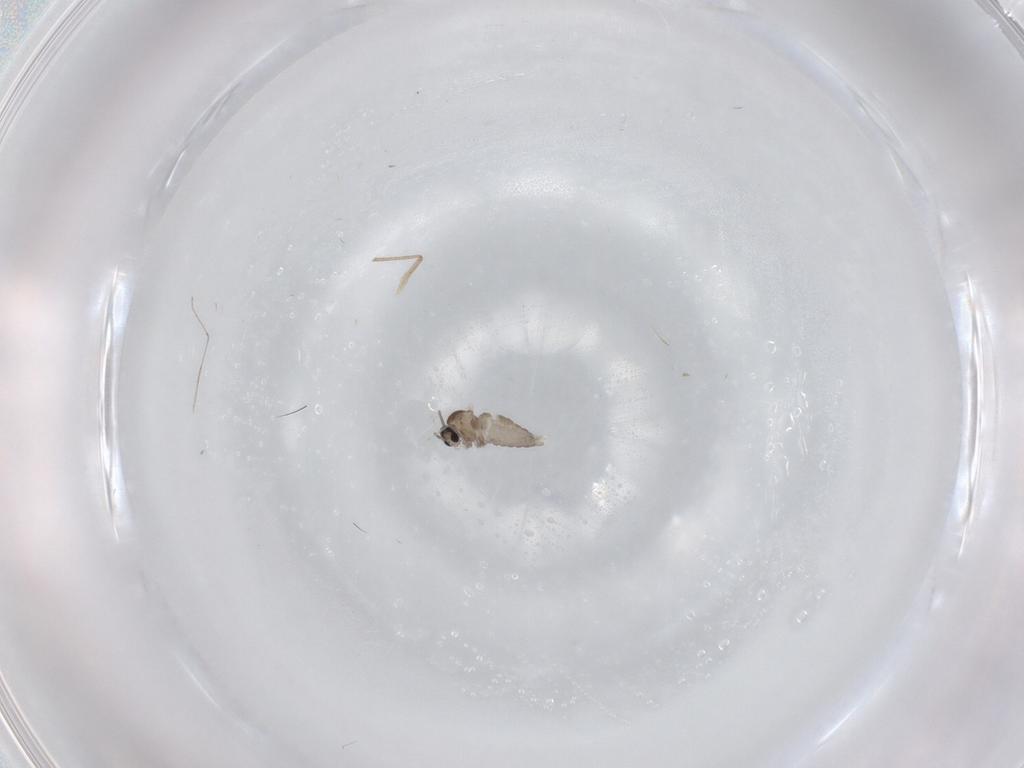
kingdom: Animalia
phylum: Arthropoda
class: Insecta
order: Diptera
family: Cecidomyiidae
